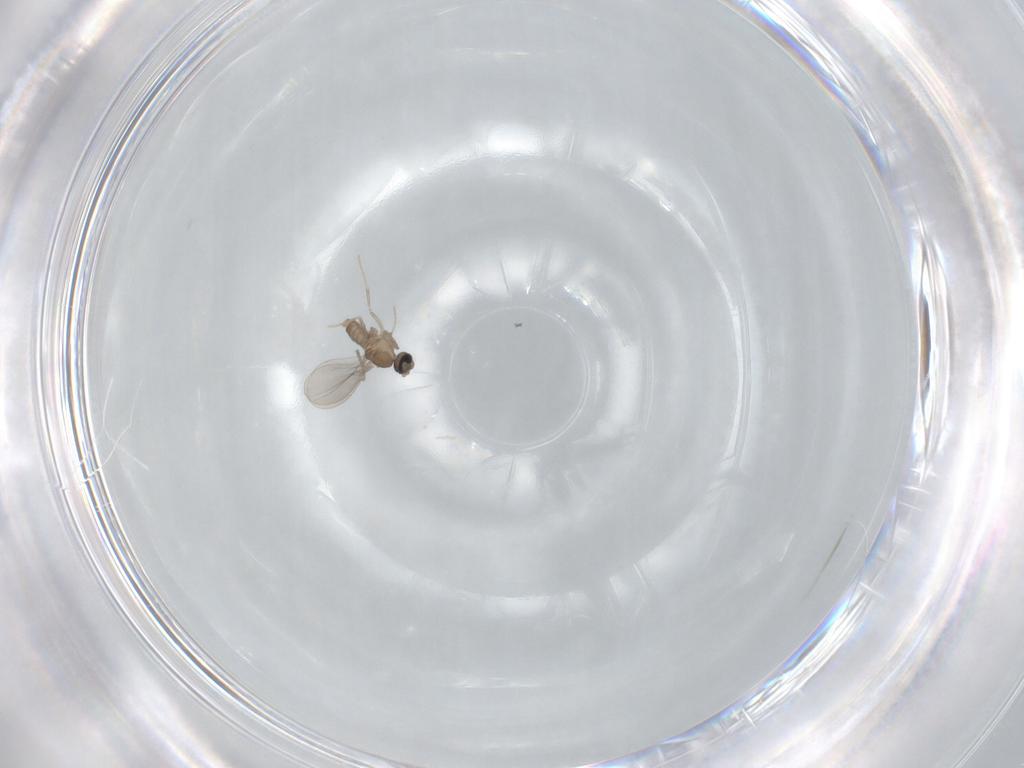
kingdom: Animalia
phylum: Arthropoda
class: Insecta
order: Diptera
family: Cecidomyiidae
